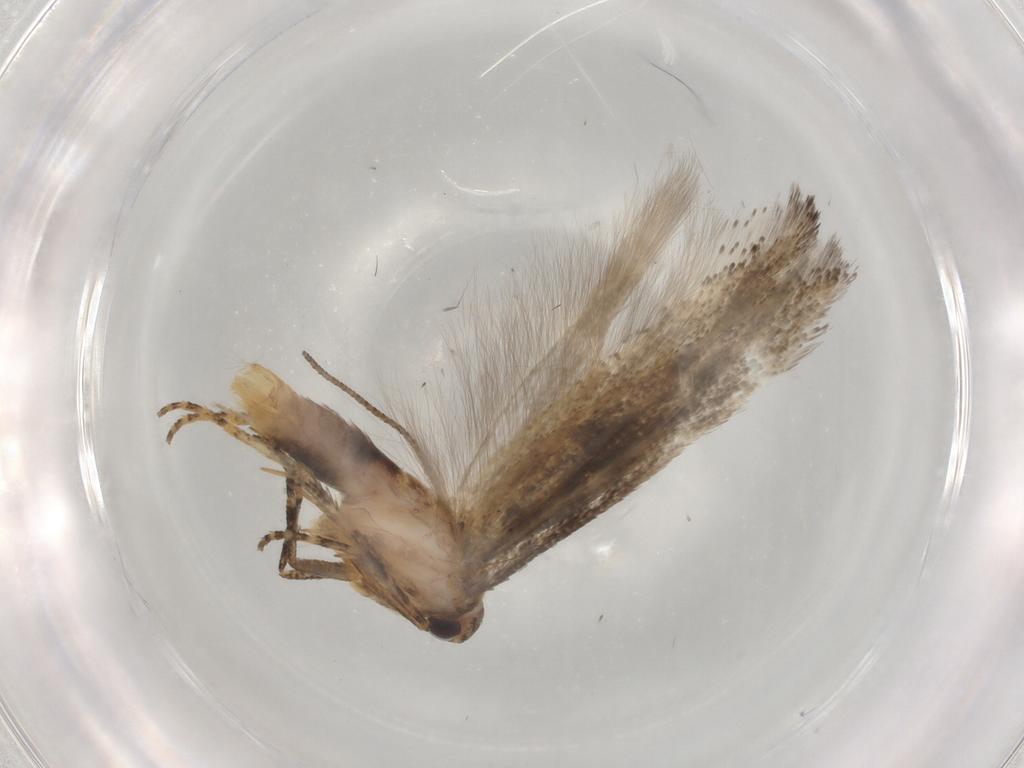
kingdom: Animalia
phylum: Arthropoda
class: Insecta
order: Lepidoptera
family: Gelechiidae
